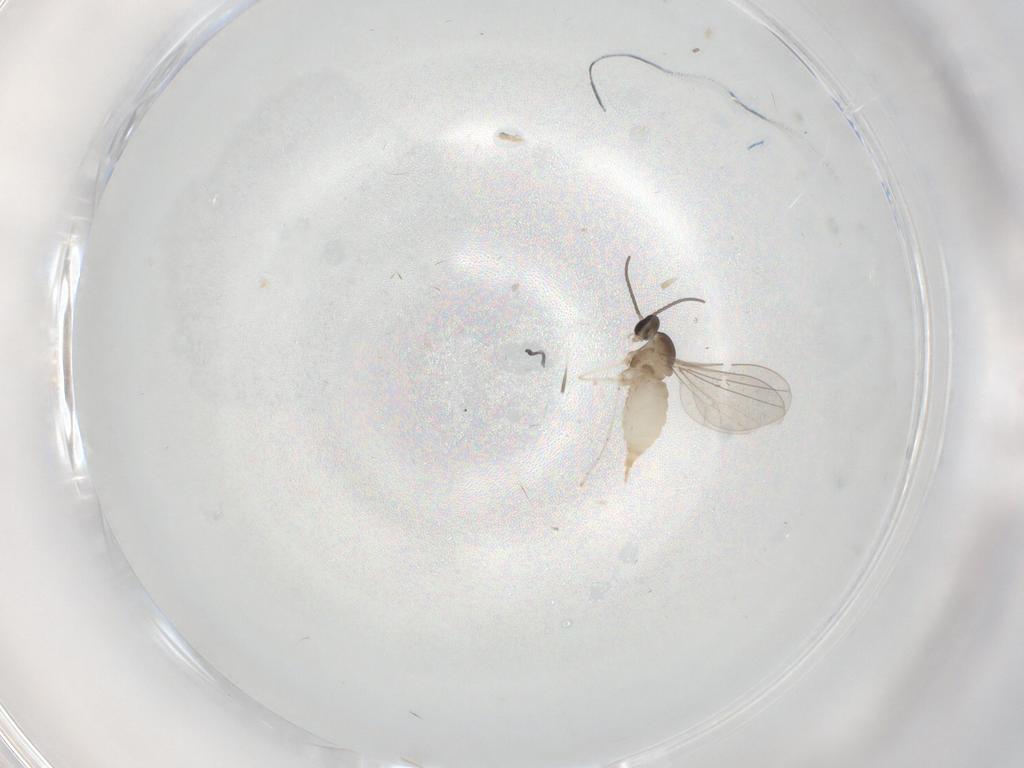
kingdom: Animalia
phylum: Arthropoda
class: Insecta
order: Diptera
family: Cecidomyiidae
